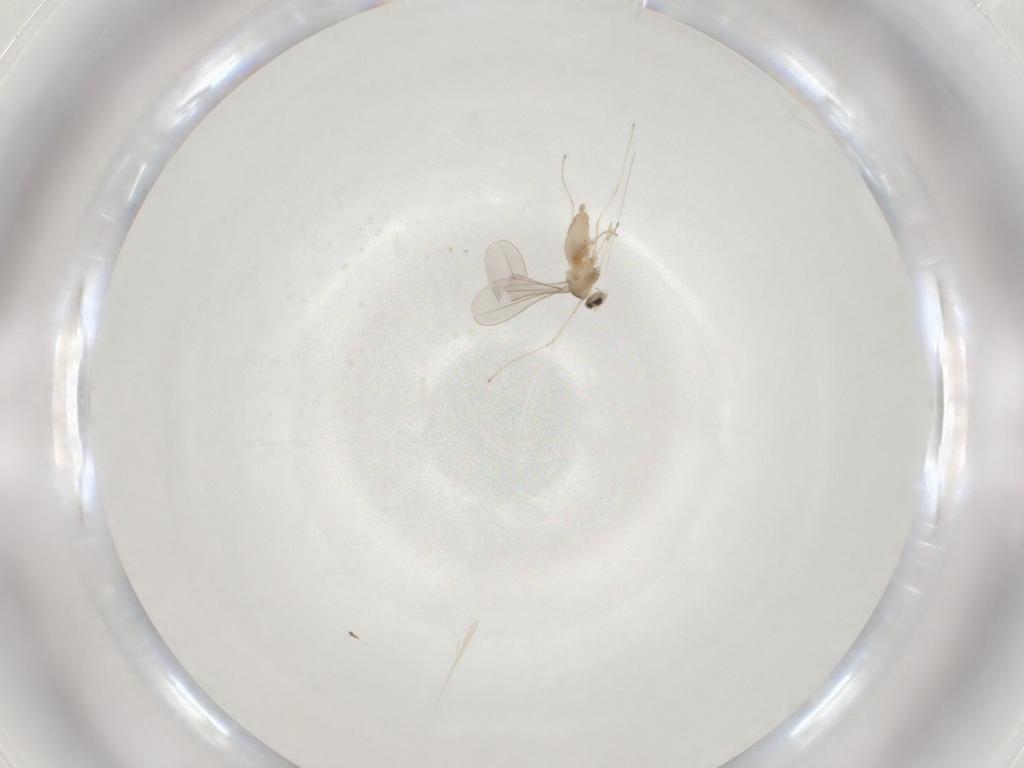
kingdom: Animalia
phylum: Arthropoda
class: Insecta
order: Diptera
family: Cecidomyiidae
